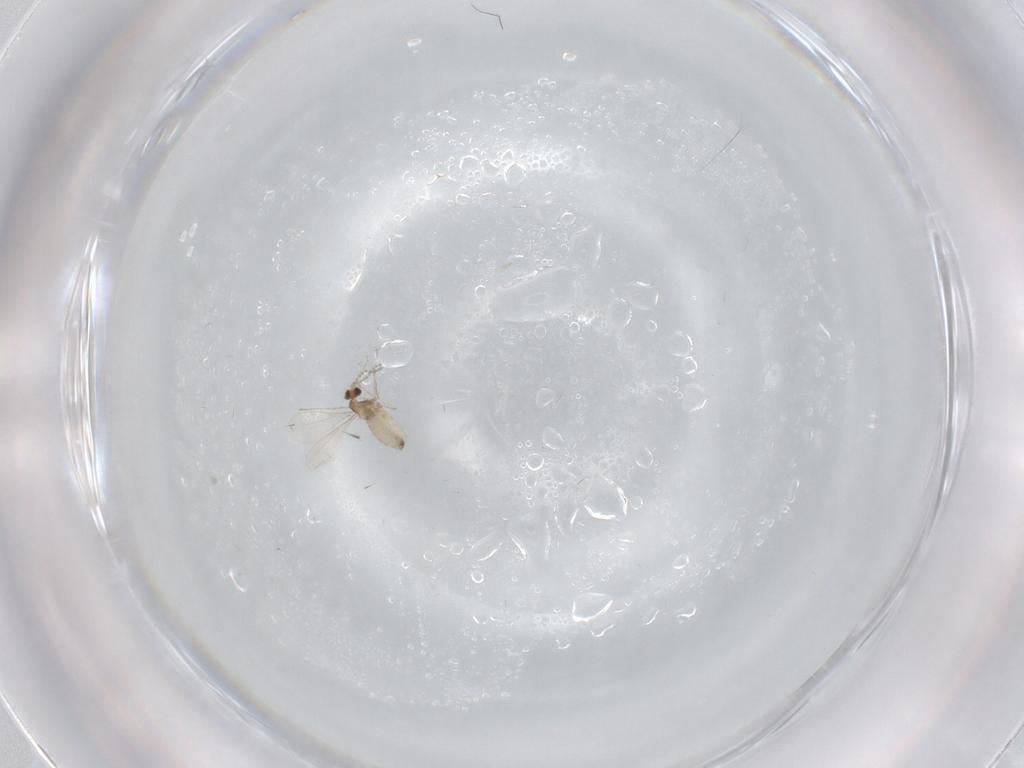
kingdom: Animalia
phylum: Arthropoda
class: Insecta
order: Diptera
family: Cecidomyiidae
